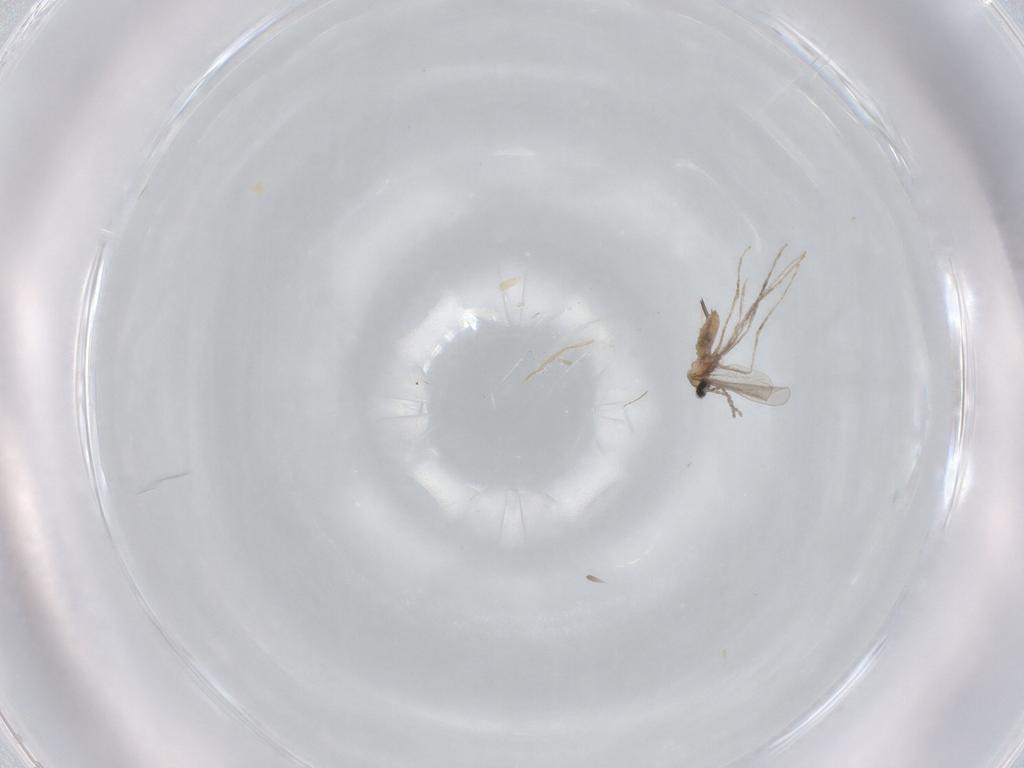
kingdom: Animalia
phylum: Arthropoda
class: Insecta
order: Diptera
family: Cecidomyiidae
